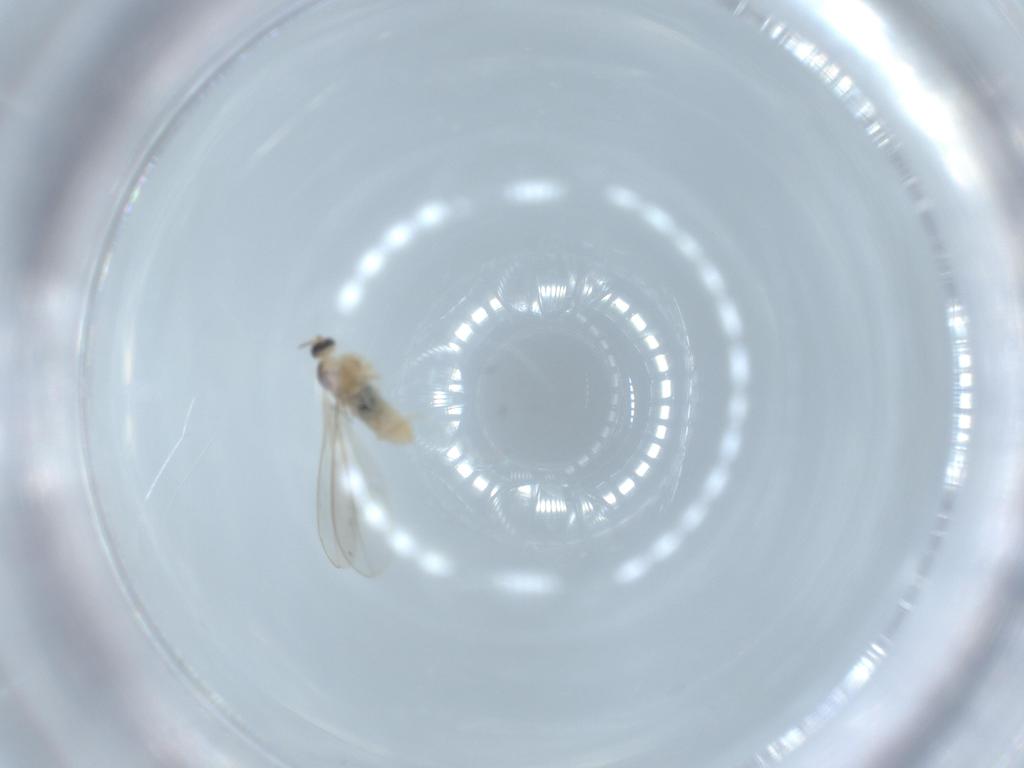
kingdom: Animalia
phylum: Arthropoda
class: Insecta
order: Diptera
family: Cecidomyiidae
